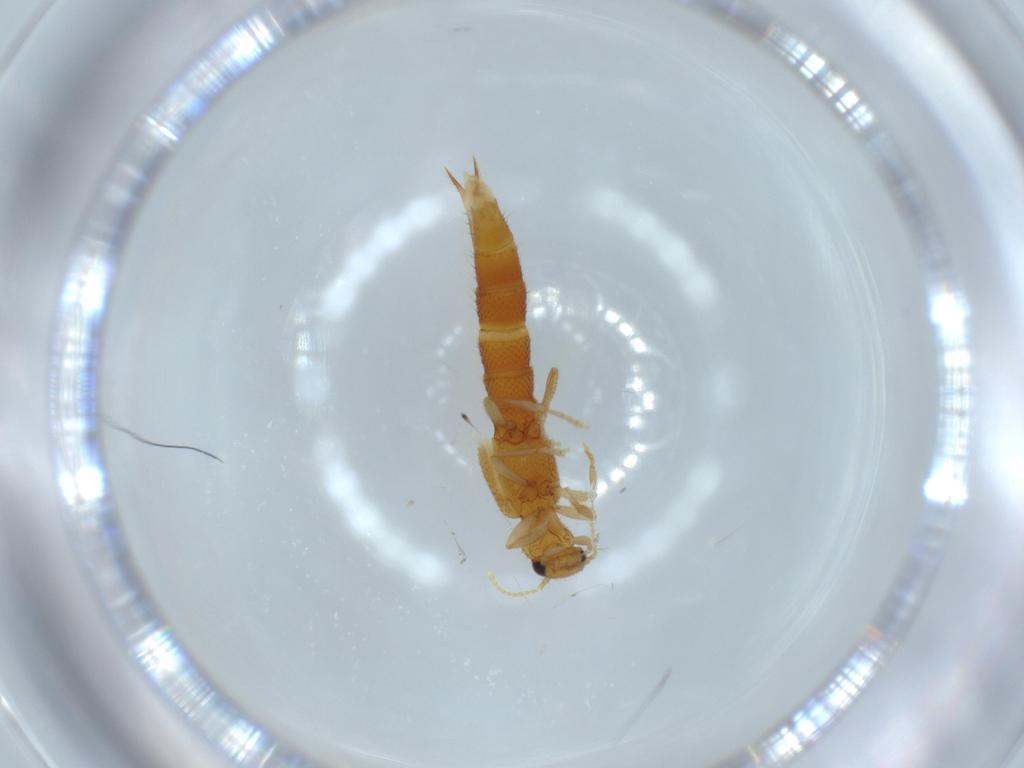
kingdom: Animalia
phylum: Arthropoda
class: Insecta
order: Coleoptera
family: Staphylinidae
